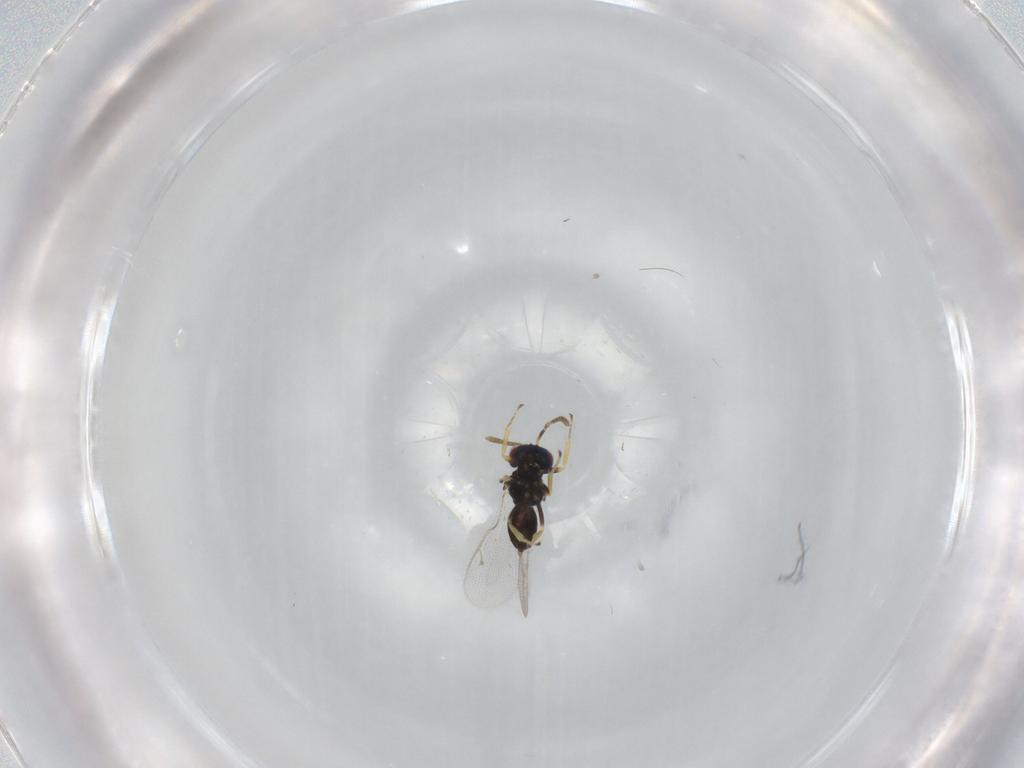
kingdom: Animalia
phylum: Arthropoda
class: Insecta
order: Hymenoptera
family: Pteromalidae
